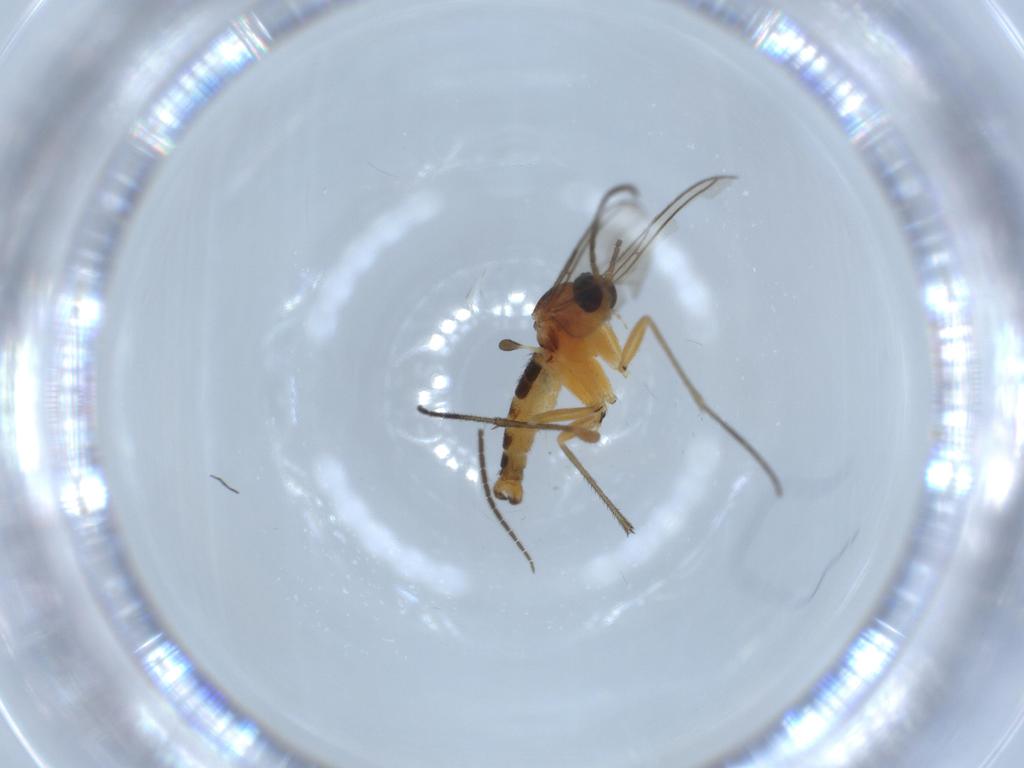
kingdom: Animalia
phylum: Arthropoda
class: Insecta
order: Diptera
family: Sciaridae
